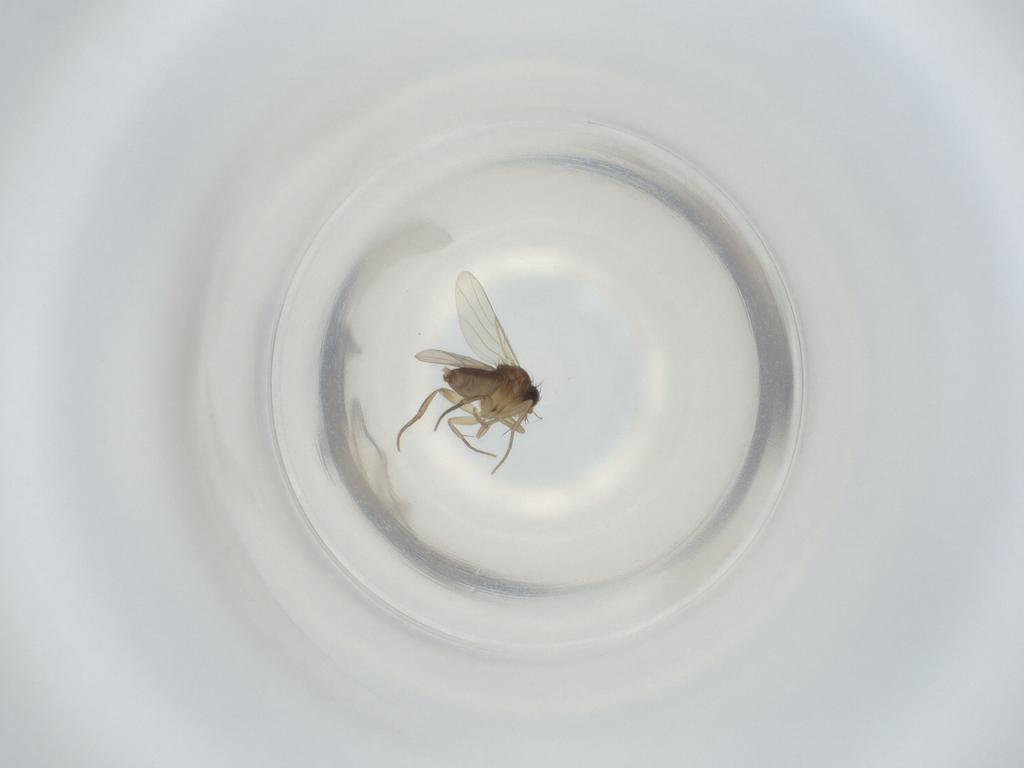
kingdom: Animalia
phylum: Arthropoda
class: Insecta
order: Diptera
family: Phoridae
